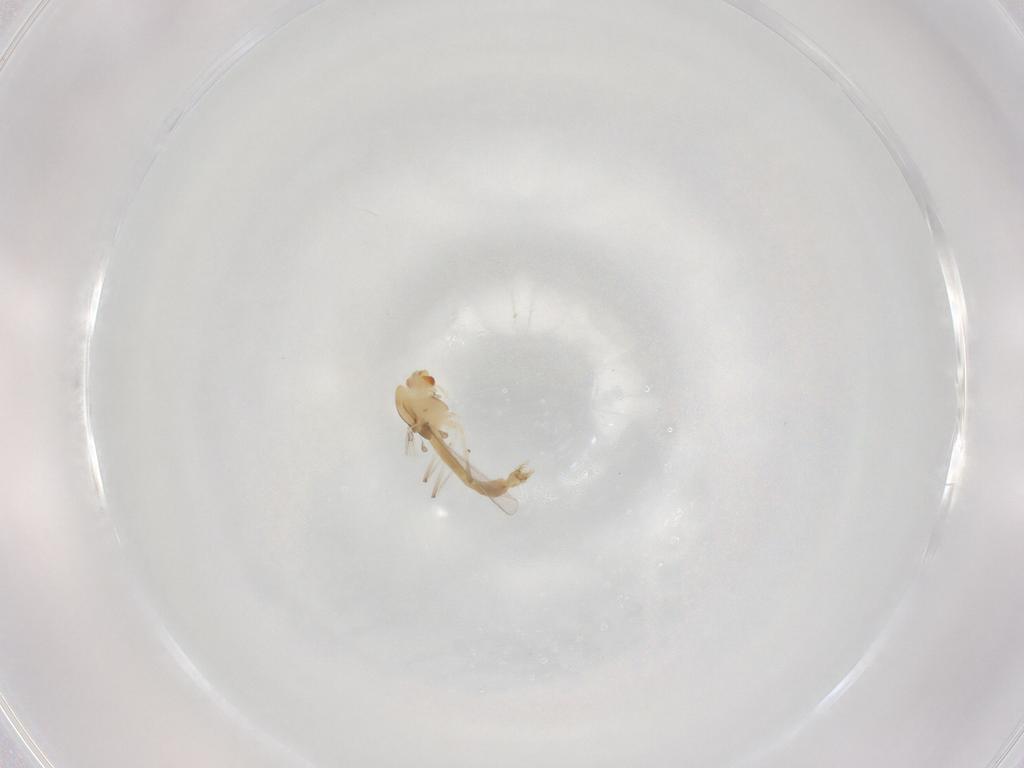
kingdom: Animalia
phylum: Arthropoda
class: Insecta
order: Diptera
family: Chironomidae
